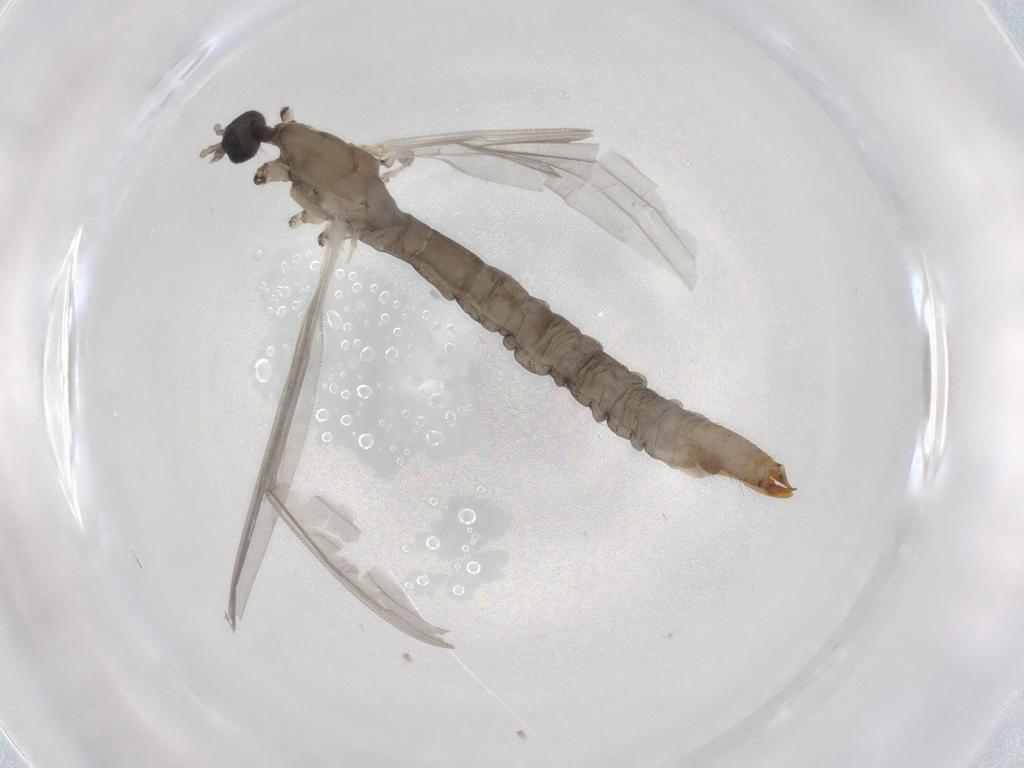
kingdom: Animalia
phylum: Arthropoda
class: Insecta
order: Diptera
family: Limoniidae
